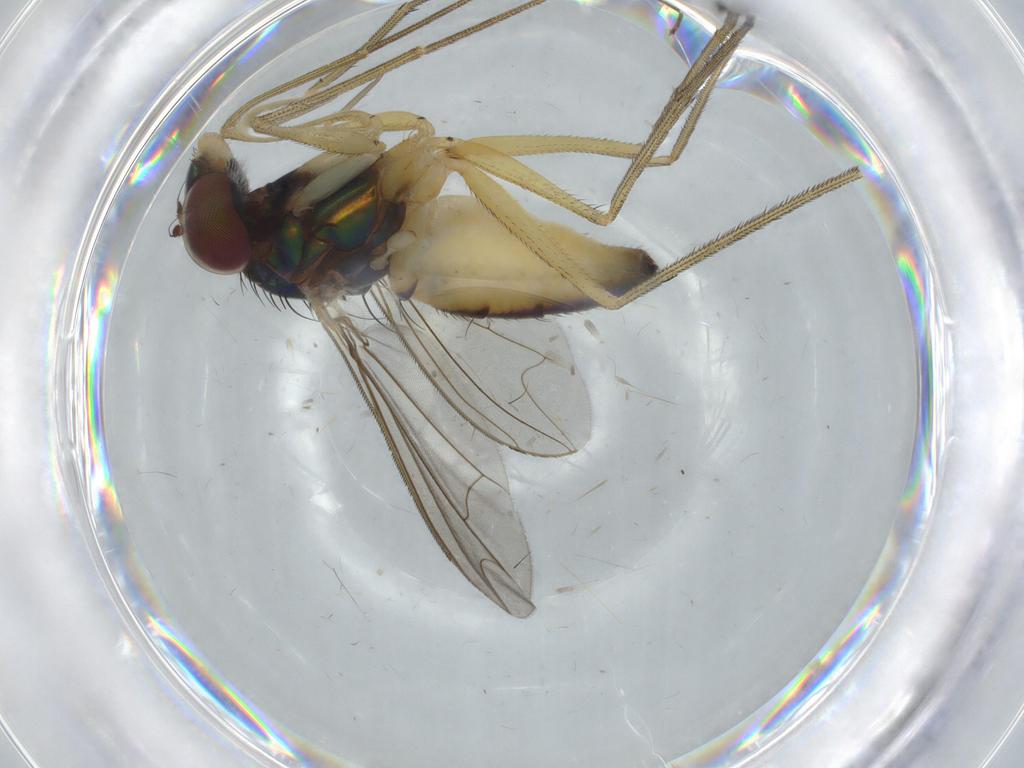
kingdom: Animalia
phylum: Arthropoda
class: Insecta
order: Diptera
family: Dolichopodidae
